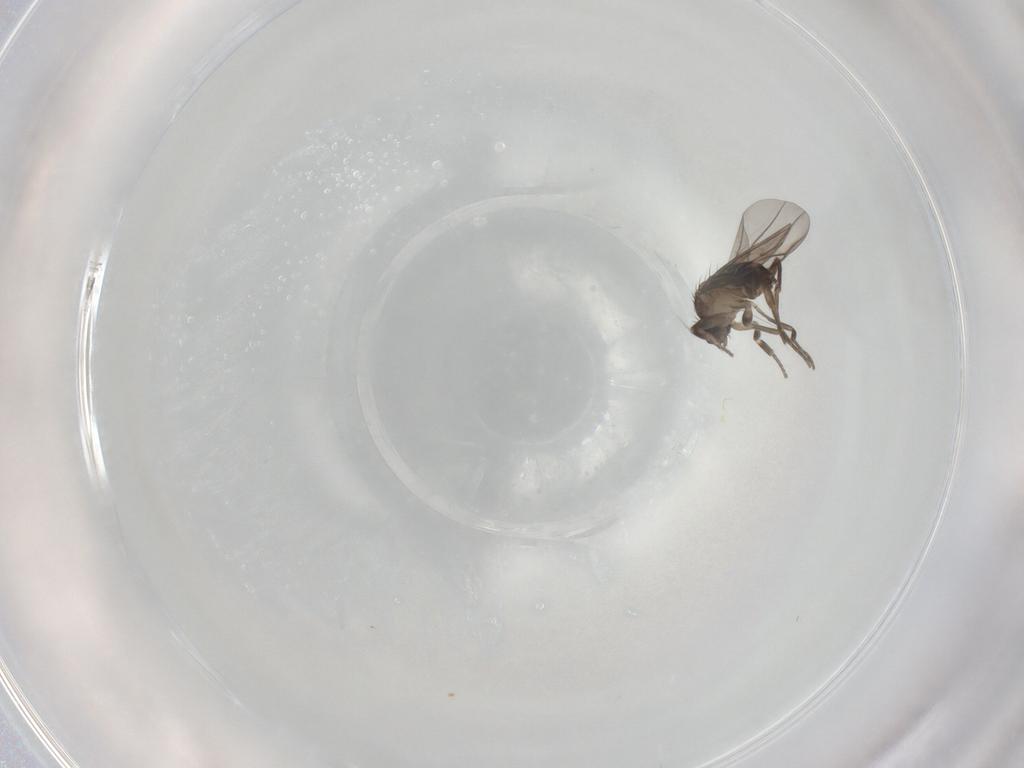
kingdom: Animalia
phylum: Arthropoda
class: Insecta
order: Diptera
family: Phoridae
